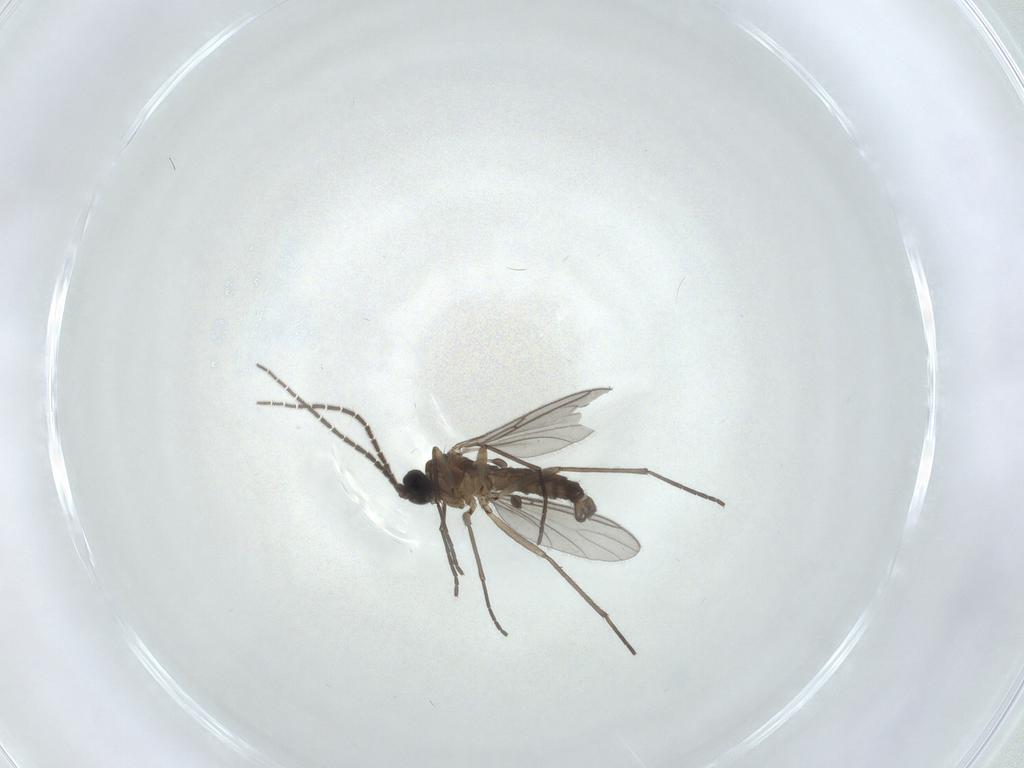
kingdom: Animalia
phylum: Arthropoda
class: Insecta
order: Diptera
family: Sciaridae
